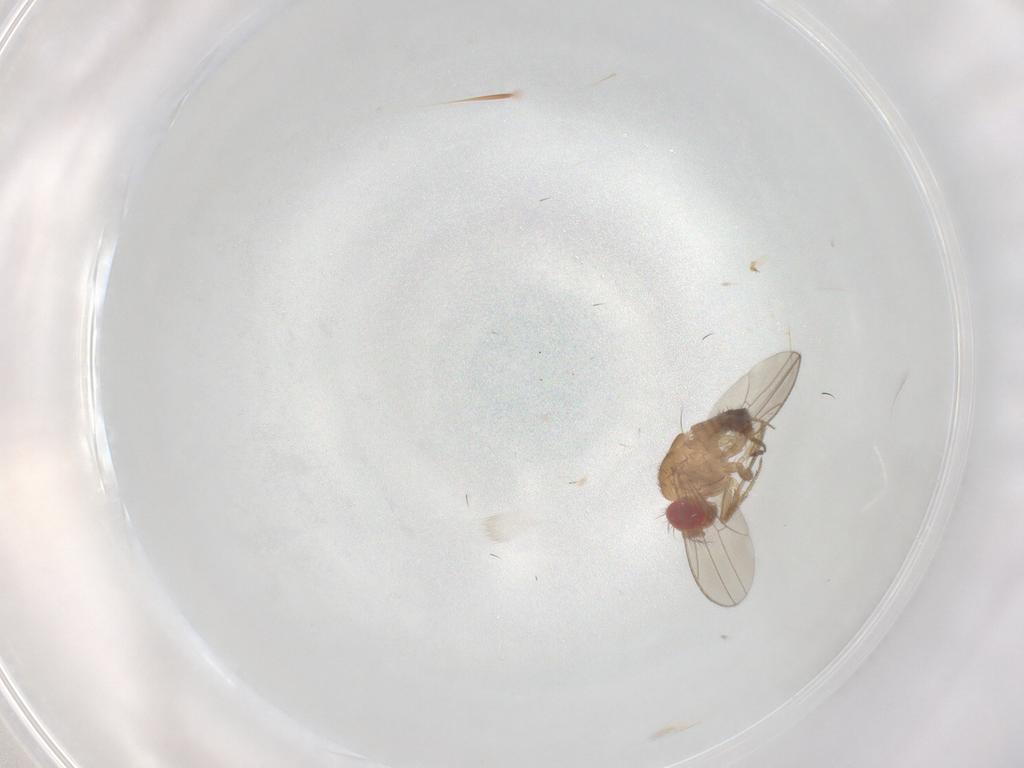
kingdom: Animalia
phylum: Arthropoda
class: Insecta
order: Diptera
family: Drosophilidae
